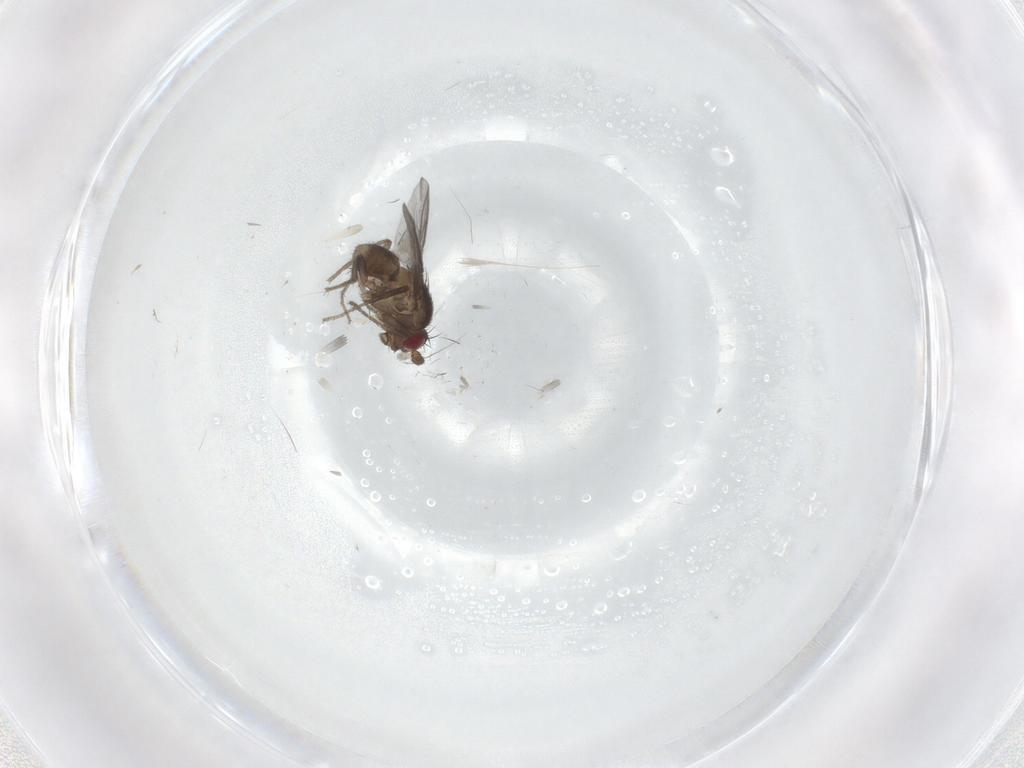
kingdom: Animalia
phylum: Arthropoda
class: Insecta
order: Diptera
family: Sphaeroceridae
